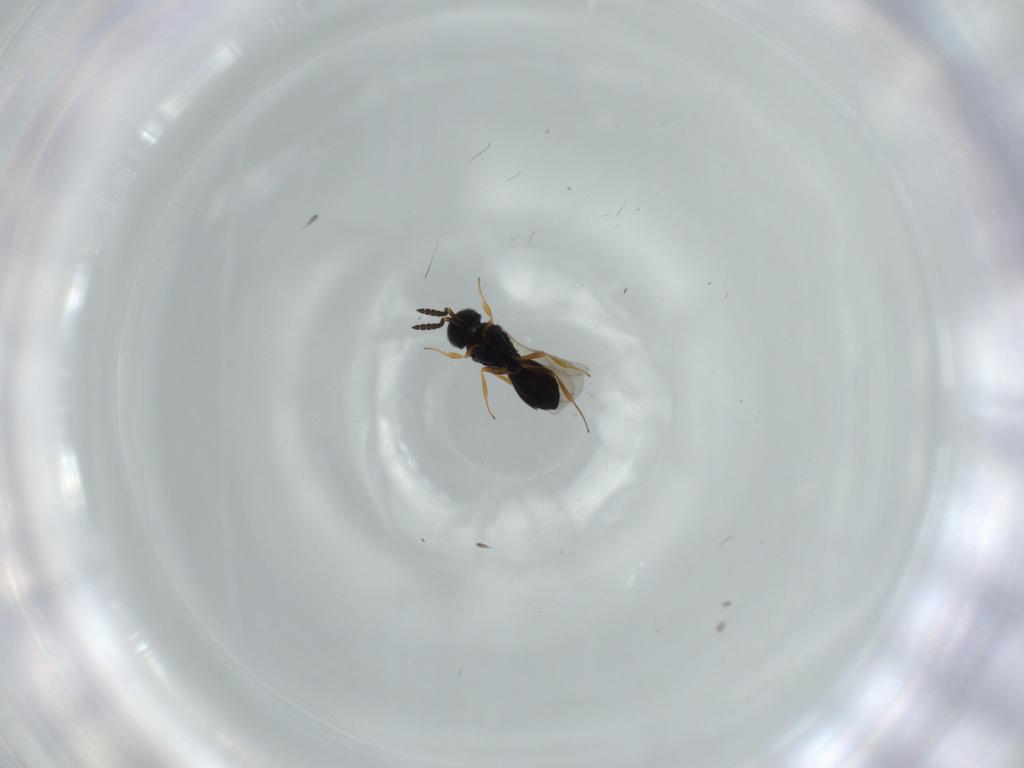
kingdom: Animalia
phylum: Arthropoda
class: Insecta
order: Hymenoptera
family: Scelionidae
